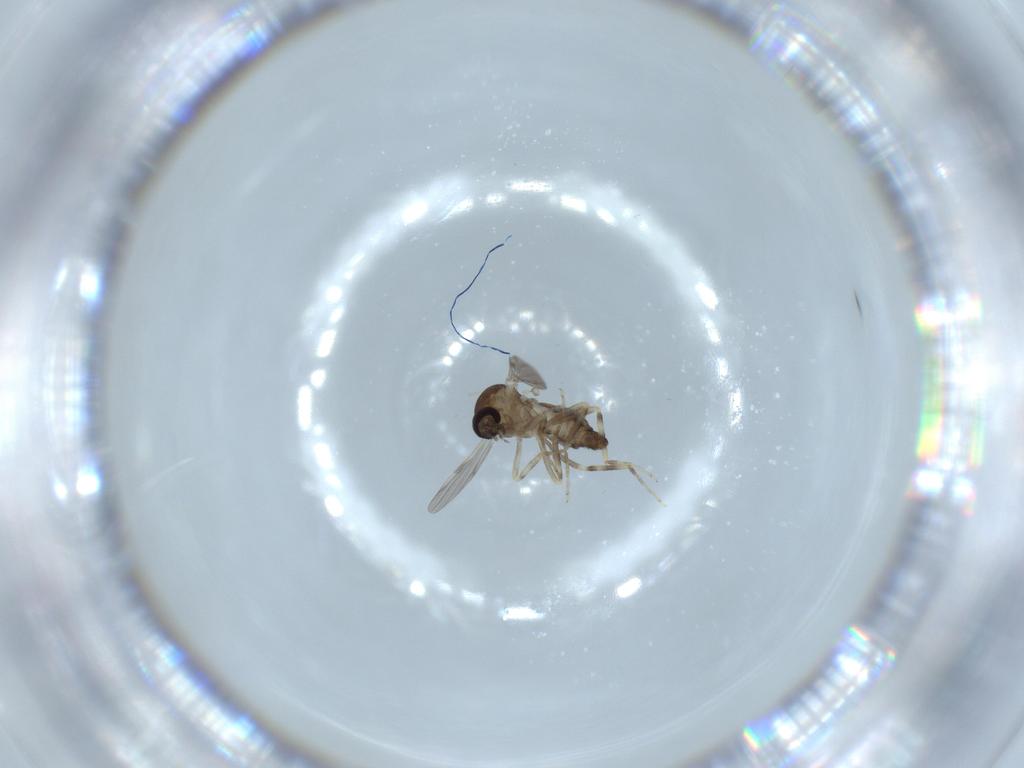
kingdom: Animalia
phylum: Arthropoda
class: Insecta
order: Diptera
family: Ceratopogonidae
